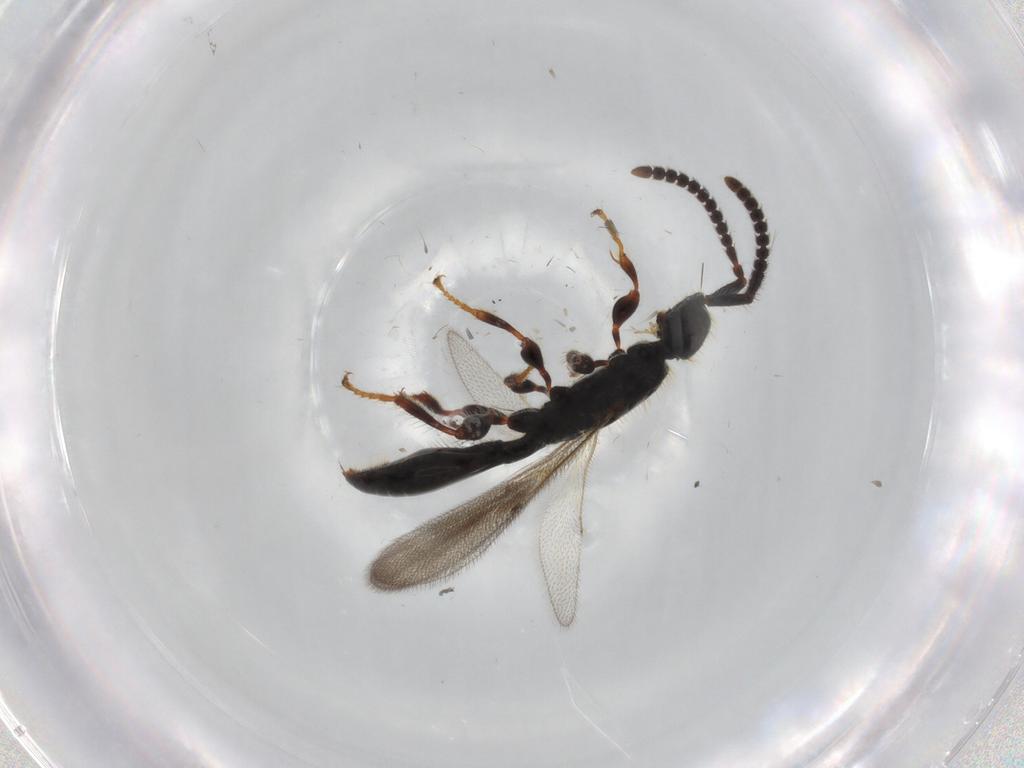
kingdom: Animalia
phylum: Arthropoda
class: Insecta
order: Hymenoptera
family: Diapriidae
